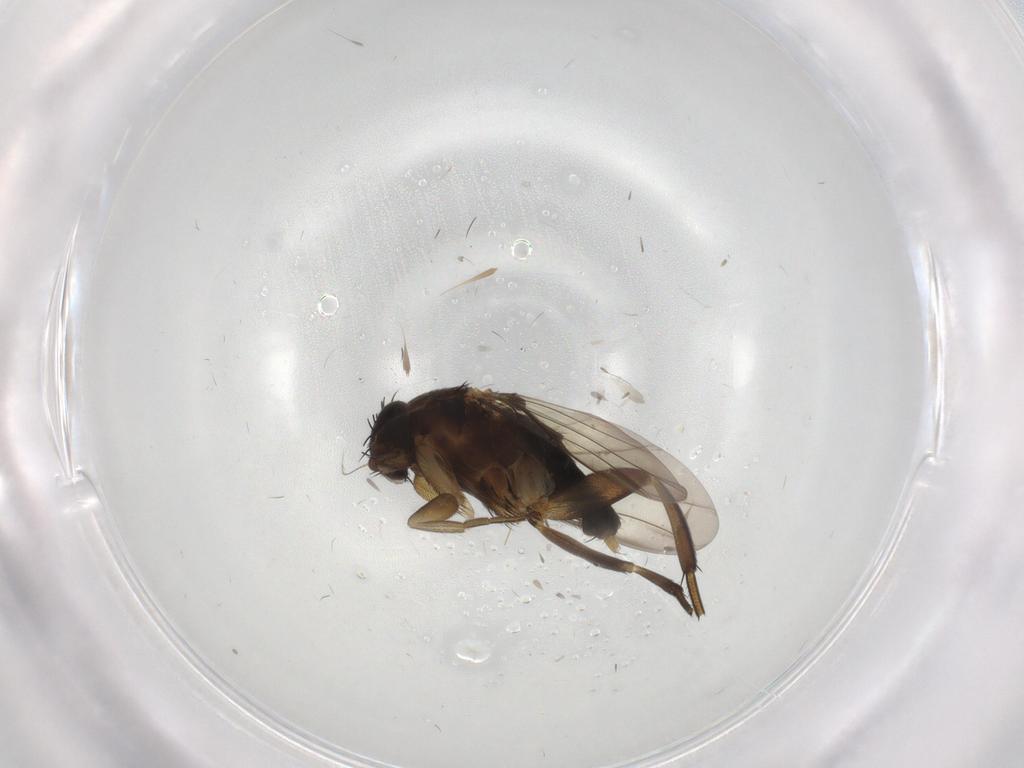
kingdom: Animalia
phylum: Arthropoda
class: Insecta
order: Diptera
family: Scatopsidae
